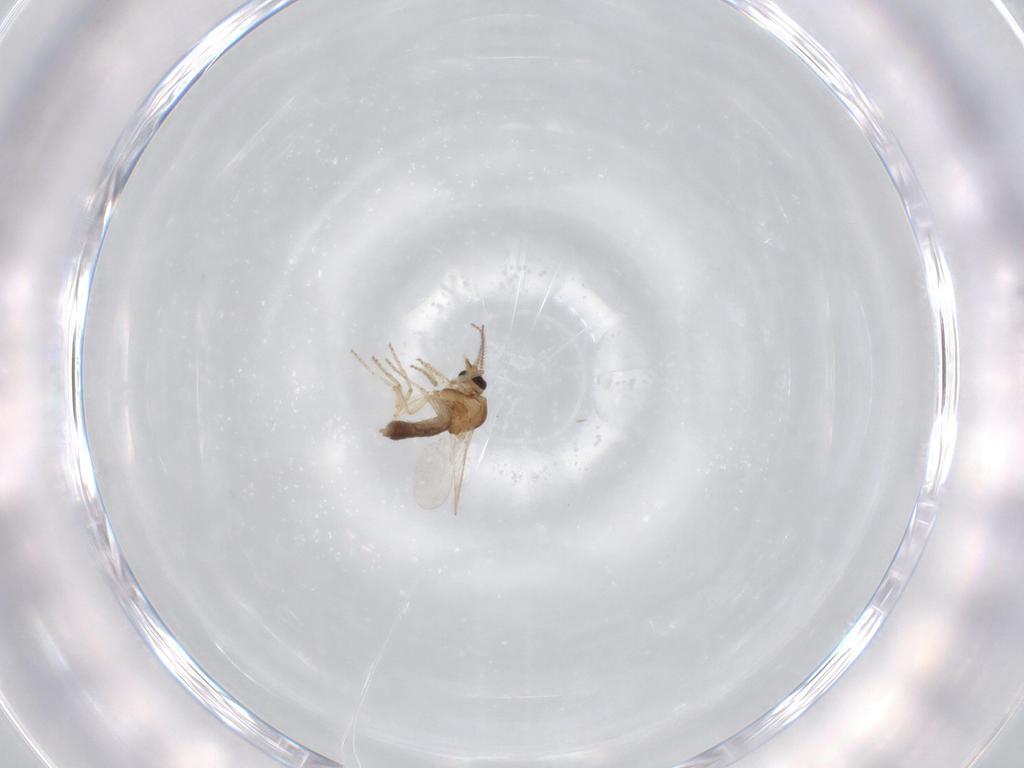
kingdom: Animalia
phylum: Arthropoda
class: Insecta
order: Diptera
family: Ceratopogonidae
